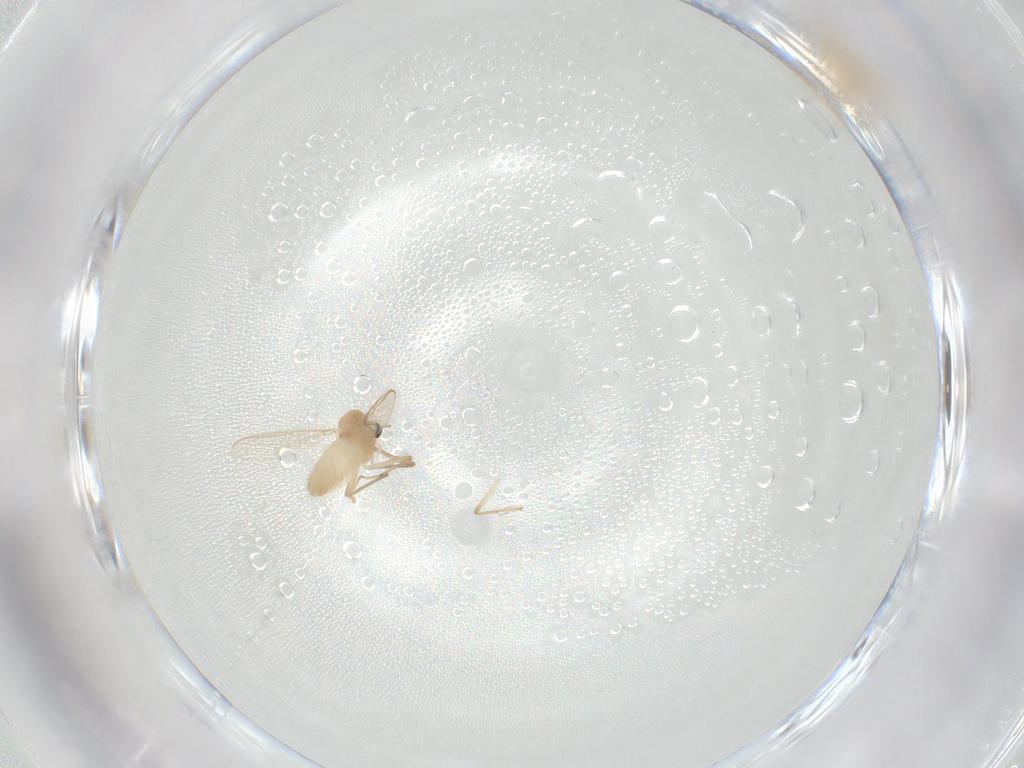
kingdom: Animalia
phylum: Arthropoda
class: Insecta
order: Diptera
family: Chironomidae
